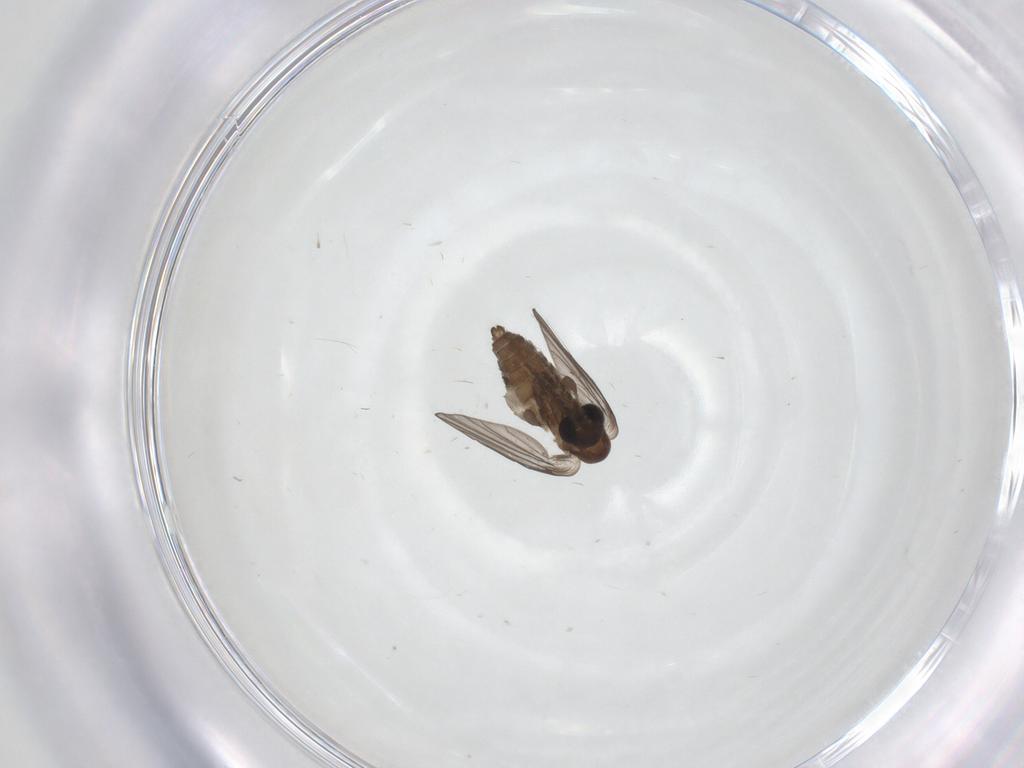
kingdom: Animalia
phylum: Arthropoda
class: Insecta
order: Diptera
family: Psychodidae
